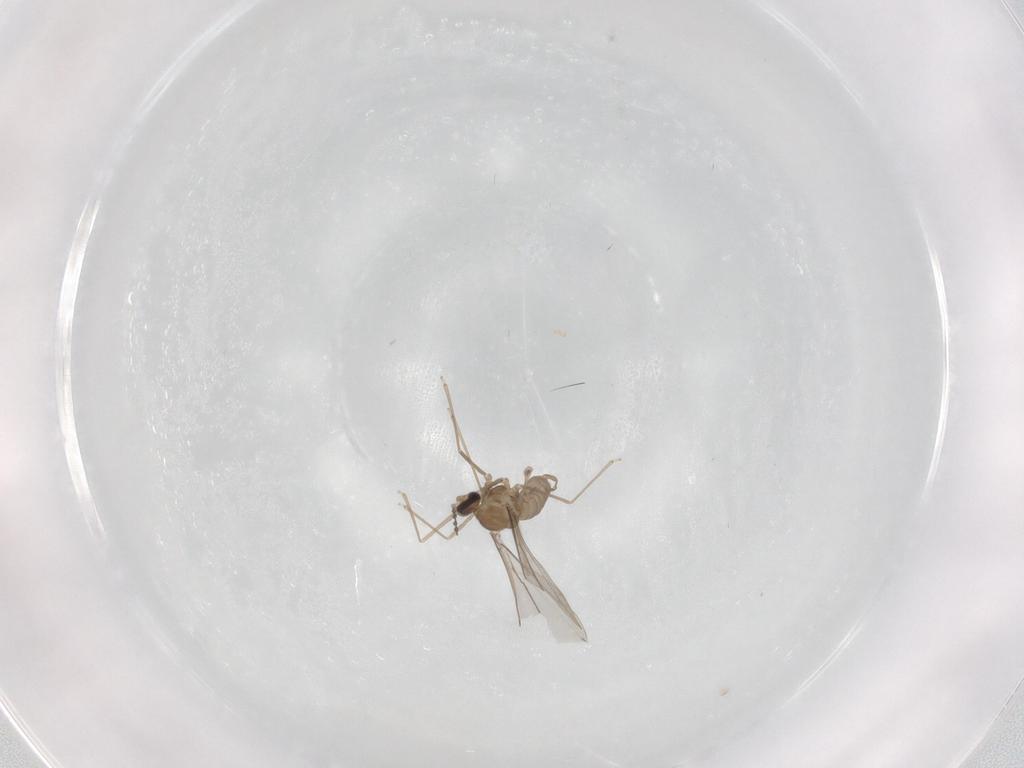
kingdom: Animalia
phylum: Arthropoda
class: Insecta
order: Diptera
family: Cecidomyiidae
